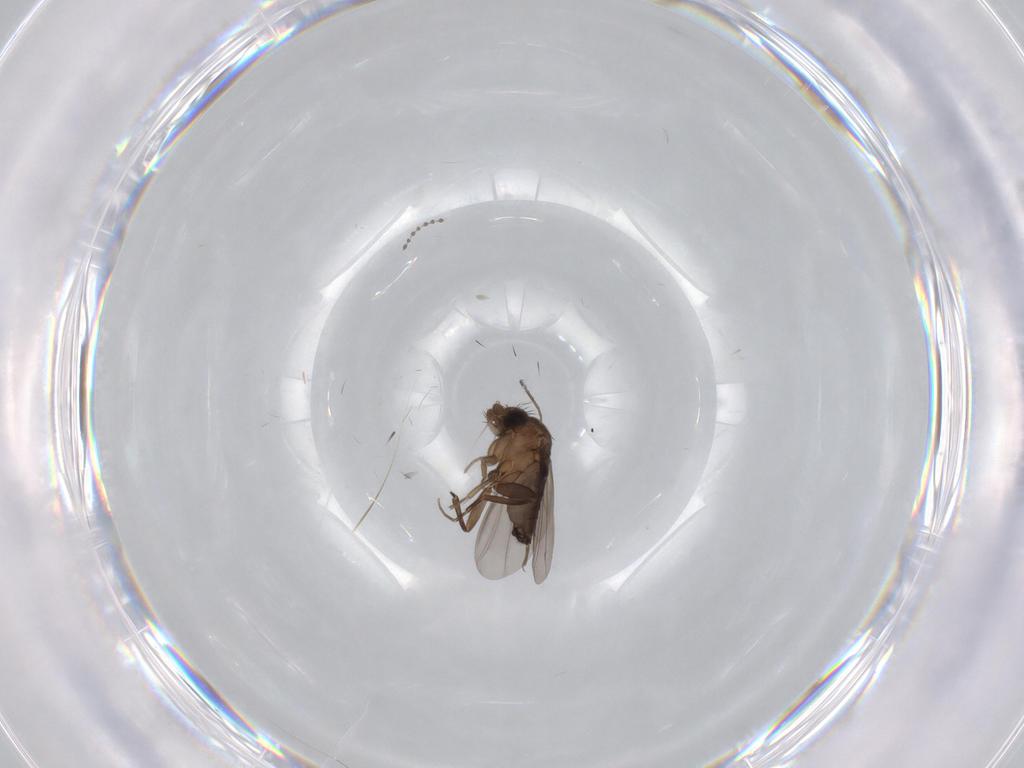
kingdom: Animalia
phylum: Arthropoda
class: Insecta
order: Diptera
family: Phoridae
